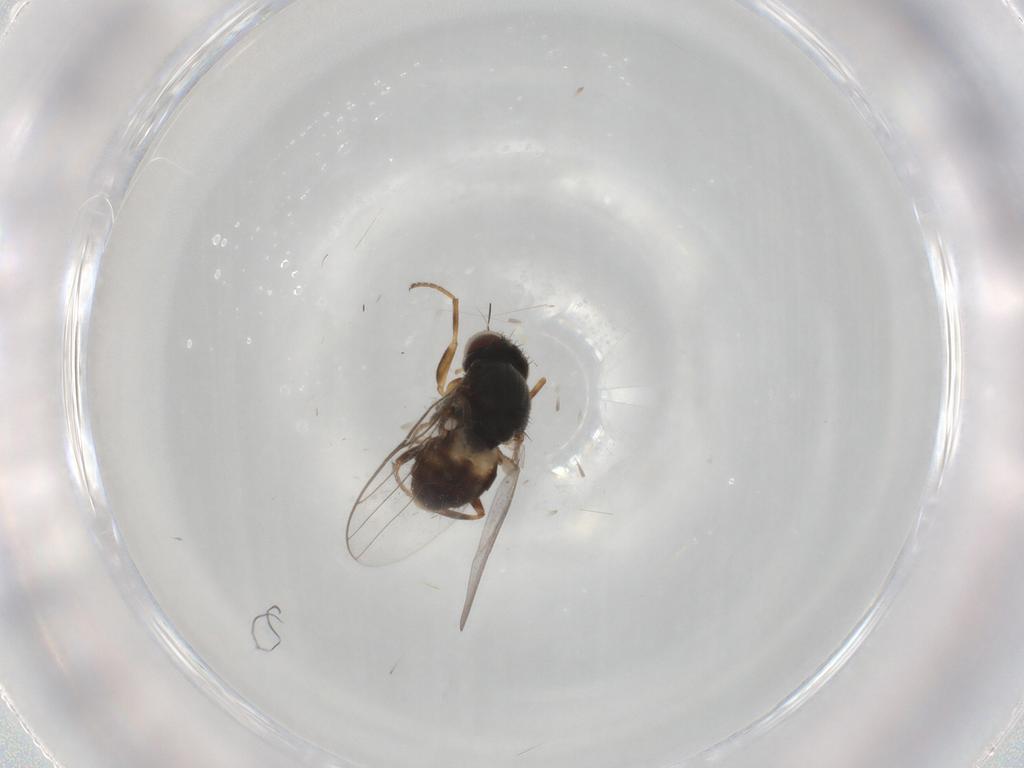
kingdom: Animalia
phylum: Arthropoda
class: Insecta
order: Diptera
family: Chloropidae
